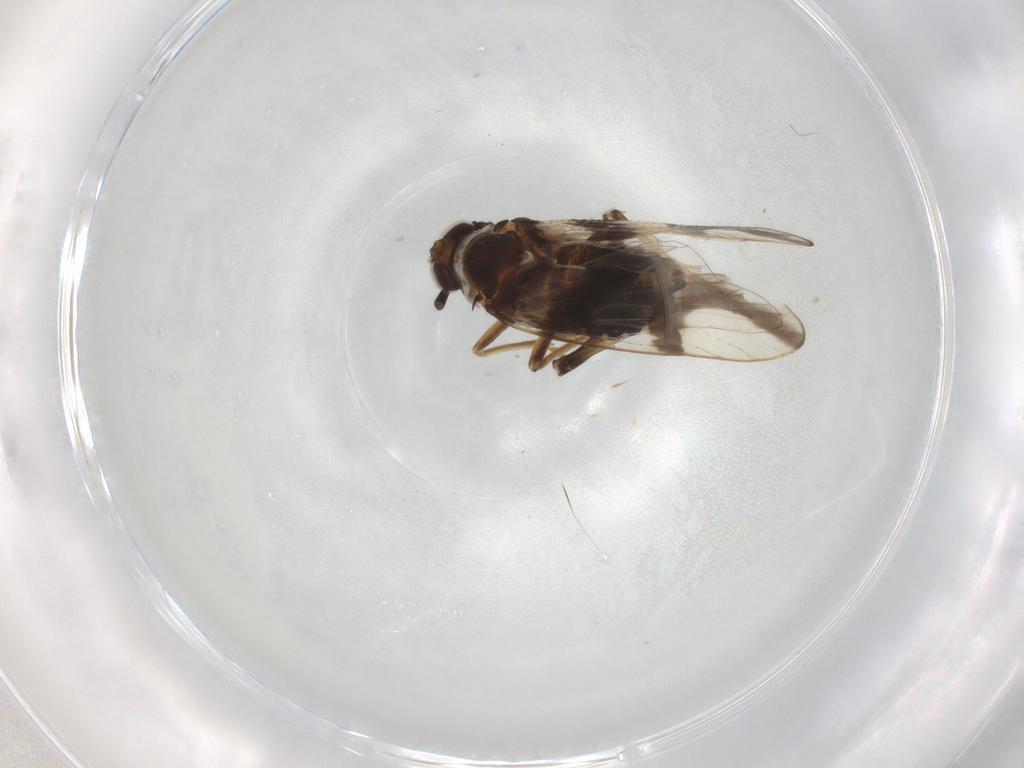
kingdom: Animalia
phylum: Arthropoda
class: Insecta
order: Hemiptera
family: Delphacidae
